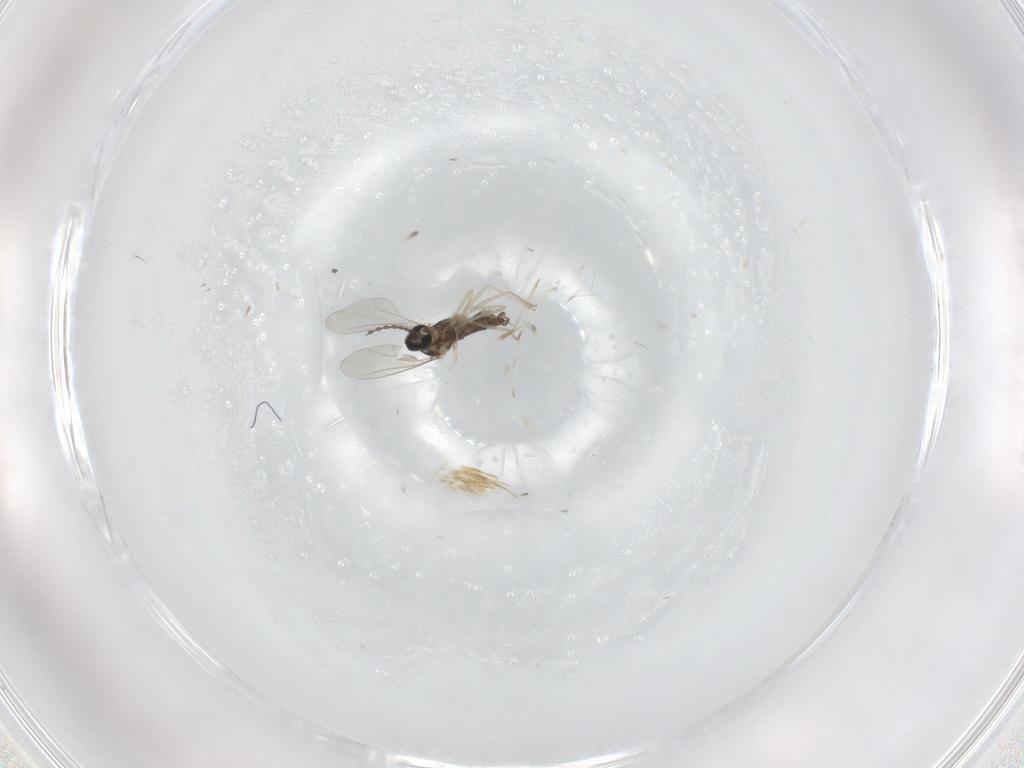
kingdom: Animalia
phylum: Arthropoda
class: Insecta
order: Diptera
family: Cecidomyiidae
